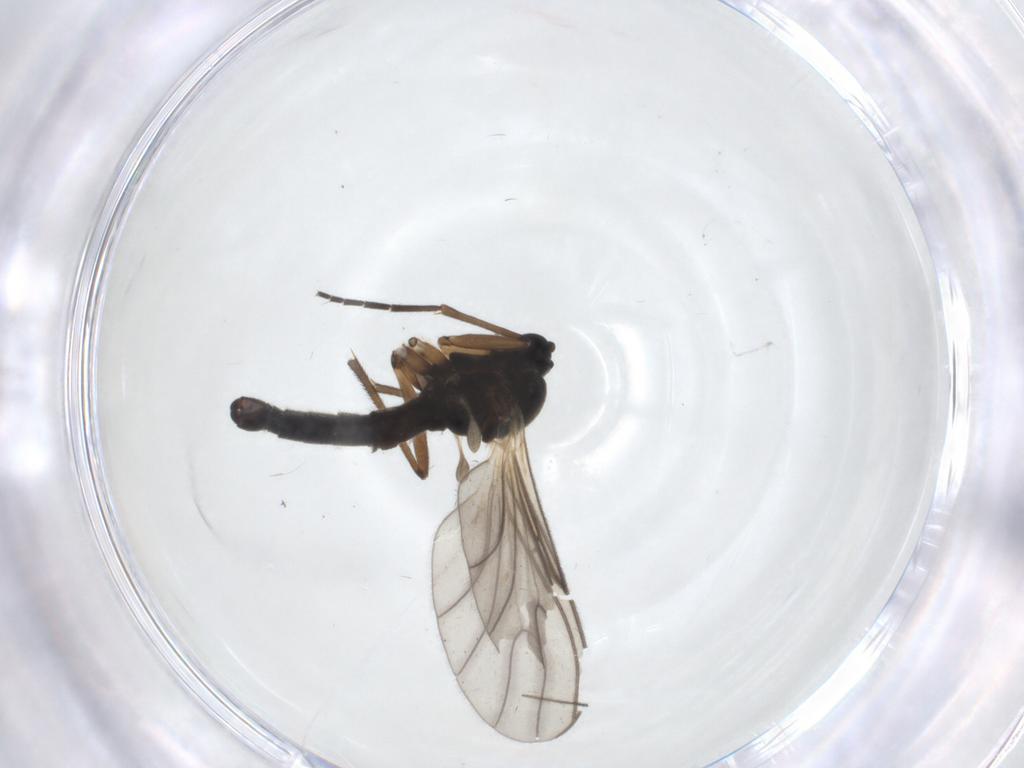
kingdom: Animalia
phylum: Arthropoda
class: Insecta
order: Diptera
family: Sciaridae
